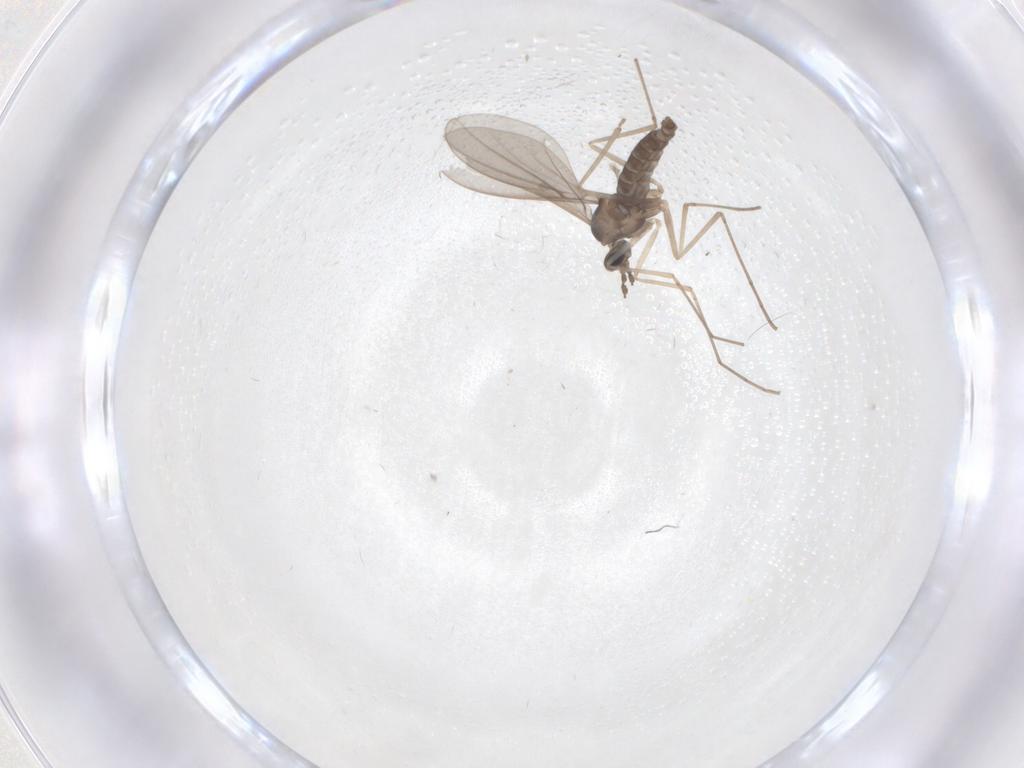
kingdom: Animalia
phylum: Arthropoda
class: Insecta
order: Diptera
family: Cecidomyiidae
